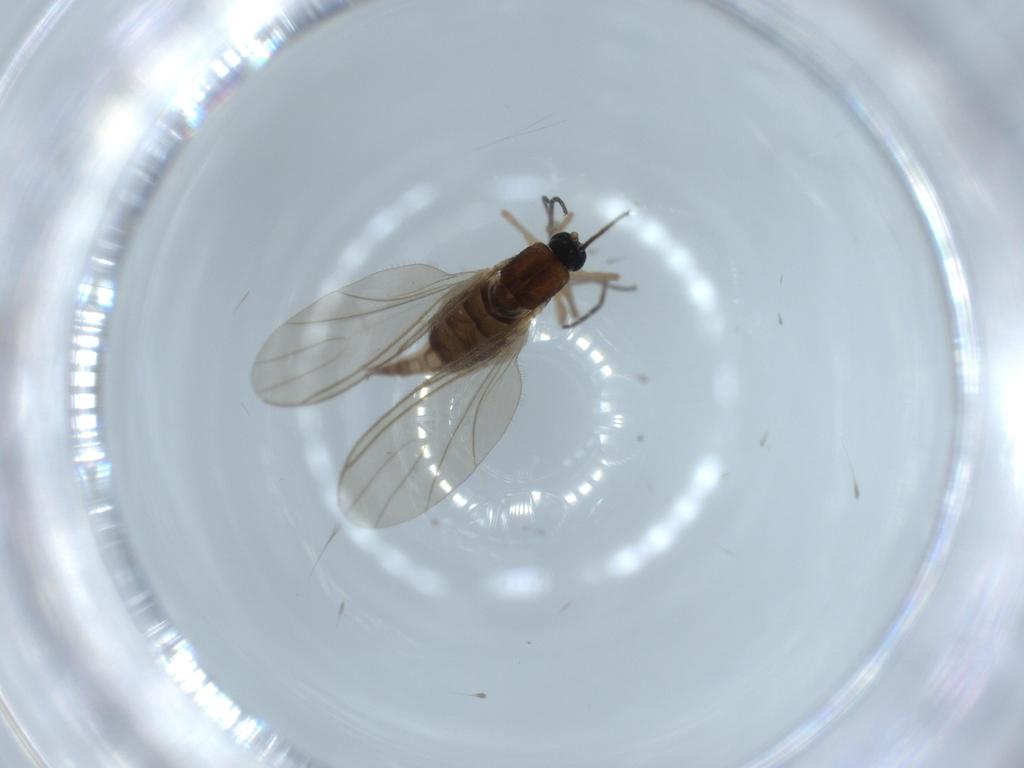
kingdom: Animalia
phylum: Arthropoda
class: Insecta
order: Diptera
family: Sciaridae
